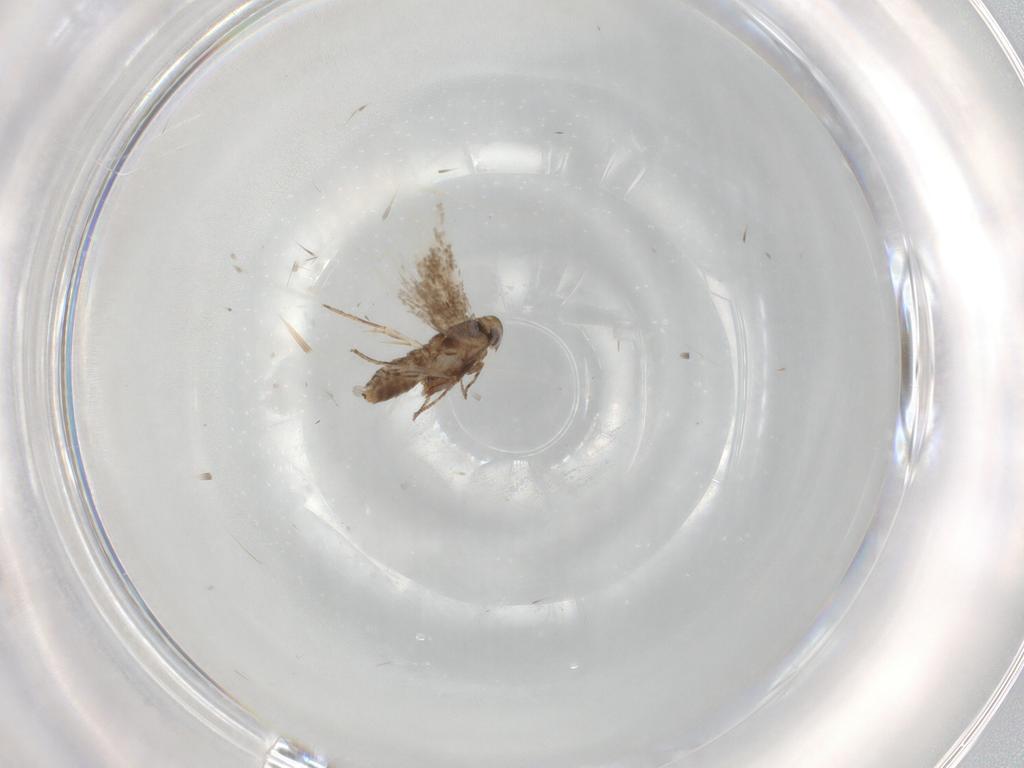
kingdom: Animalia
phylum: Arthropoda
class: Insecta
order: Lepidoptera
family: Nymphalidae
